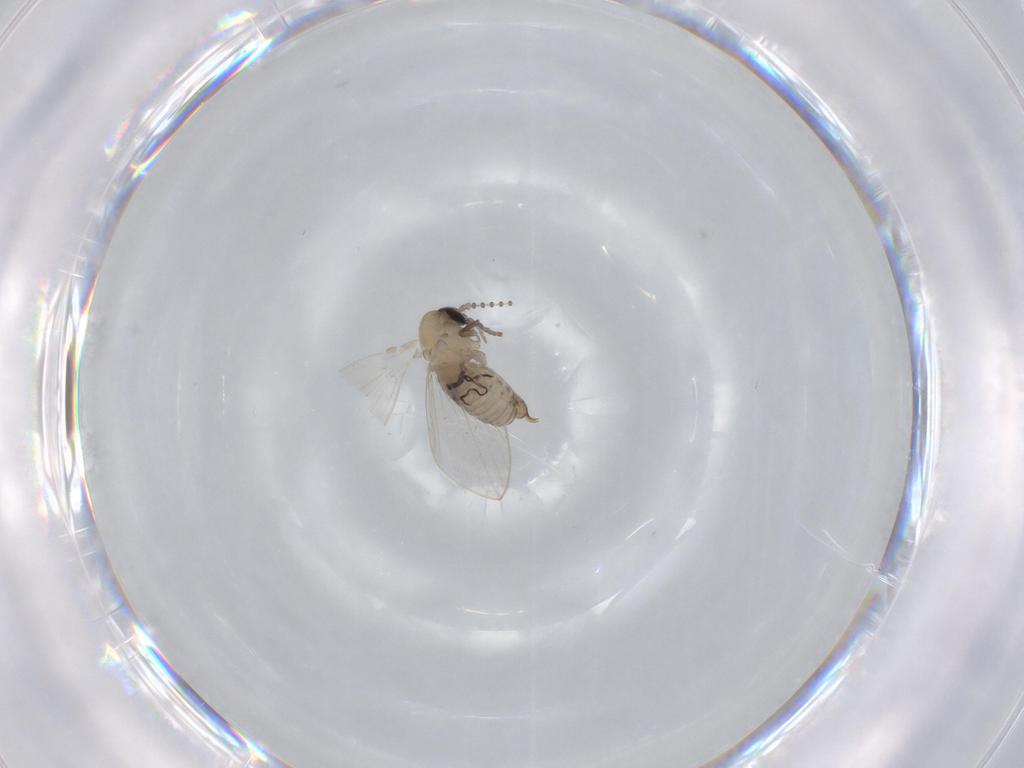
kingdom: Animalia
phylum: Arthropoda
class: Insecta
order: Diptera
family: Psychodidae
